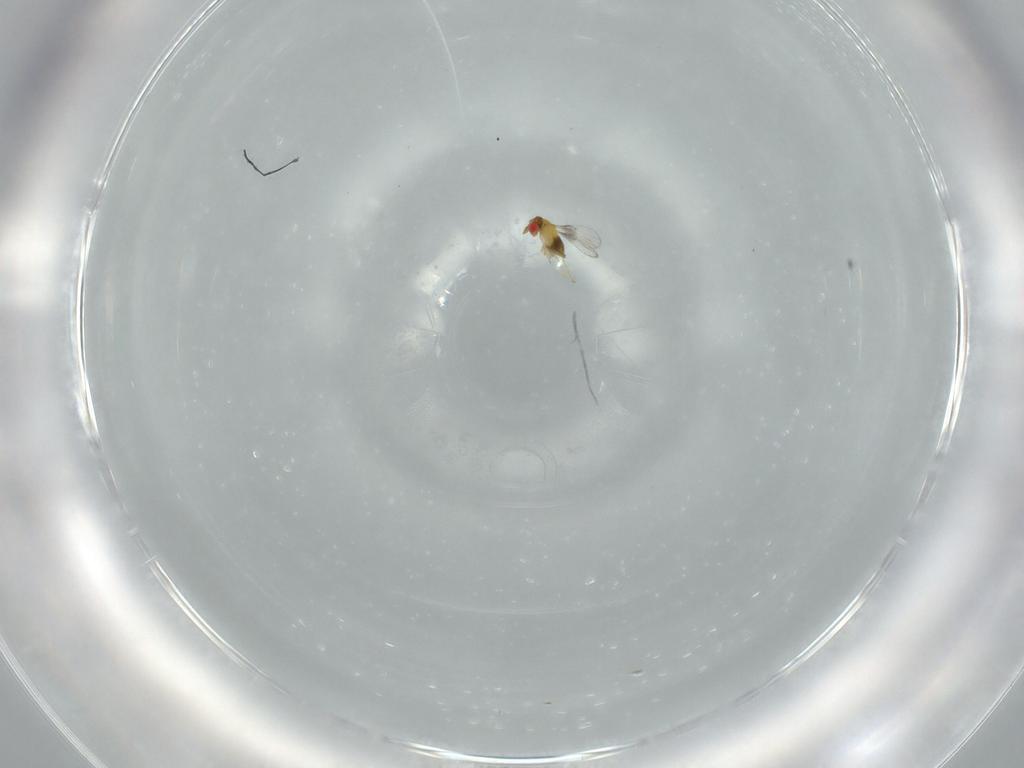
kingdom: Animalia
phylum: Arthropoda
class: Insecta
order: Hymenoptera
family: Trichogrammatidae
